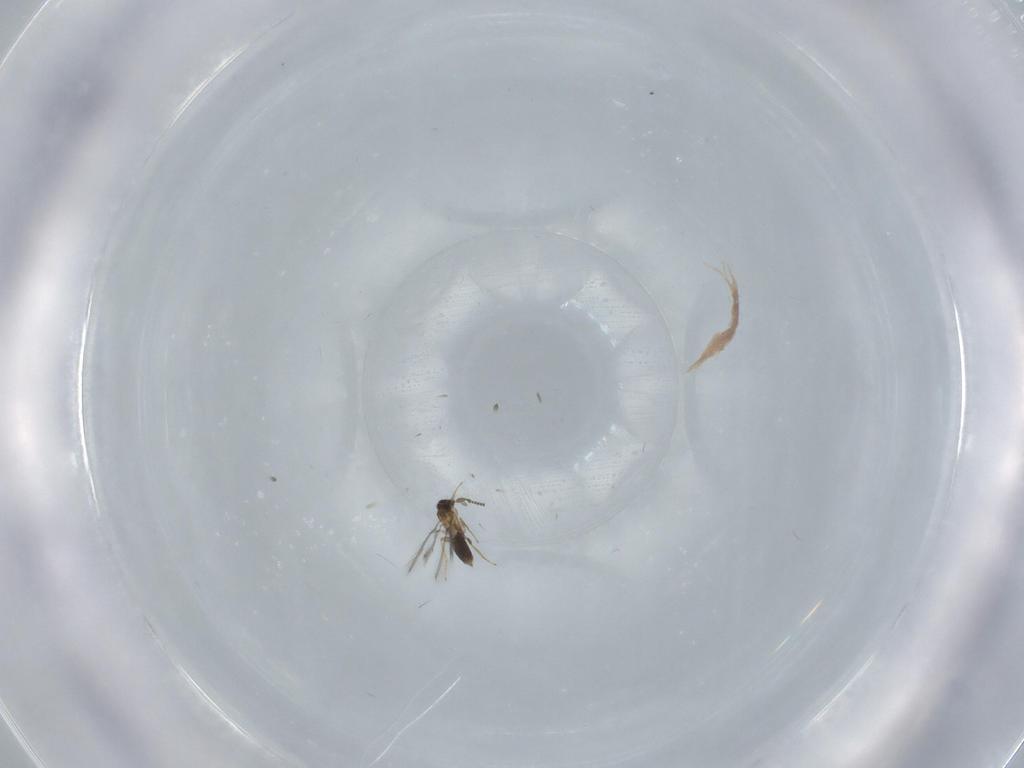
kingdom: Animalia
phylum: Arthropoda
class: Insecta
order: Hymenoptera
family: Mymaridae
